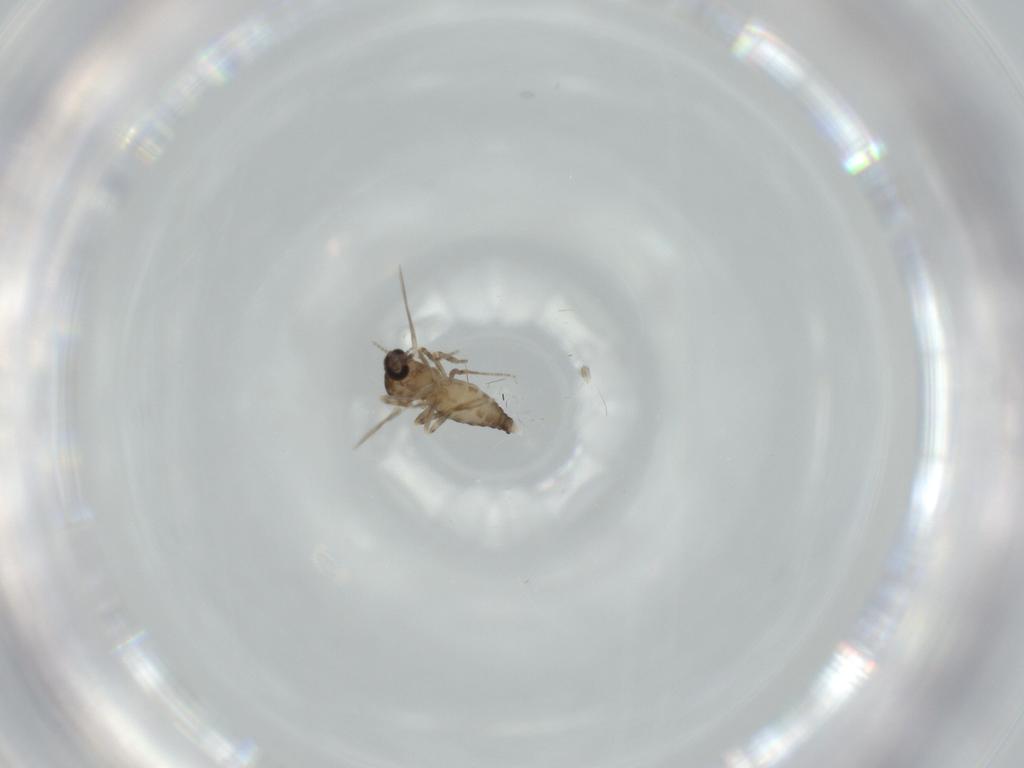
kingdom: Animalia
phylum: Arthropoda
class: Insecta
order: Diptera
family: Ceratopogonidae
